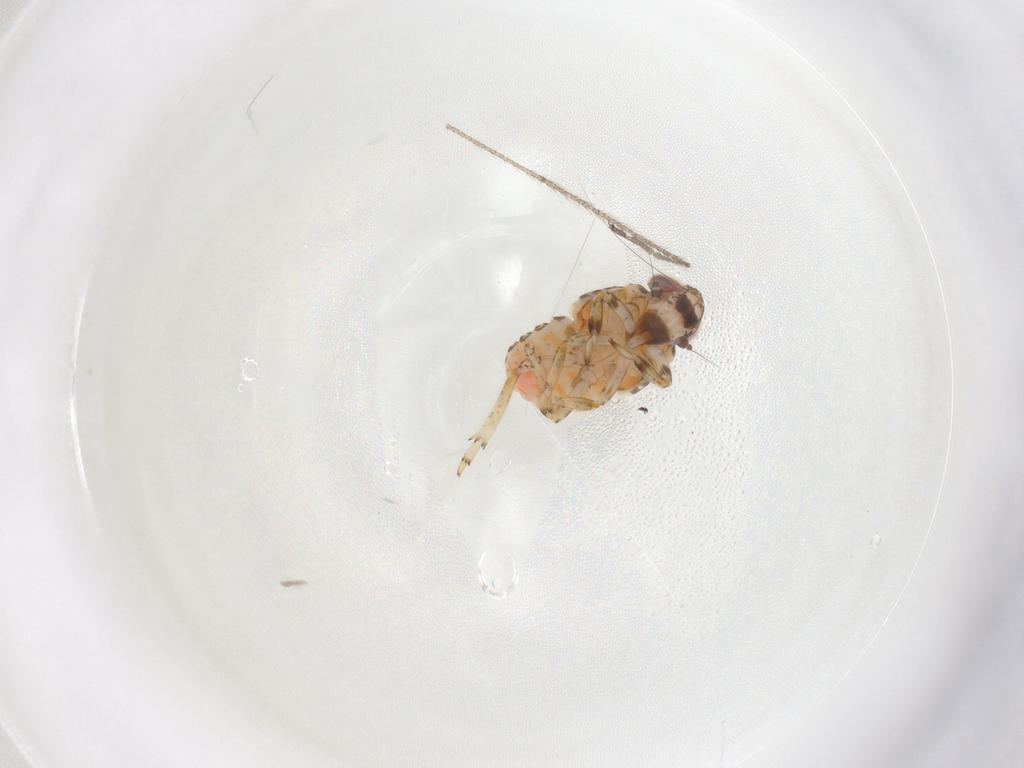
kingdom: Animalia
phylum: Arthropoda
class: Insecta
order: Diptera
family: Limoniidae
